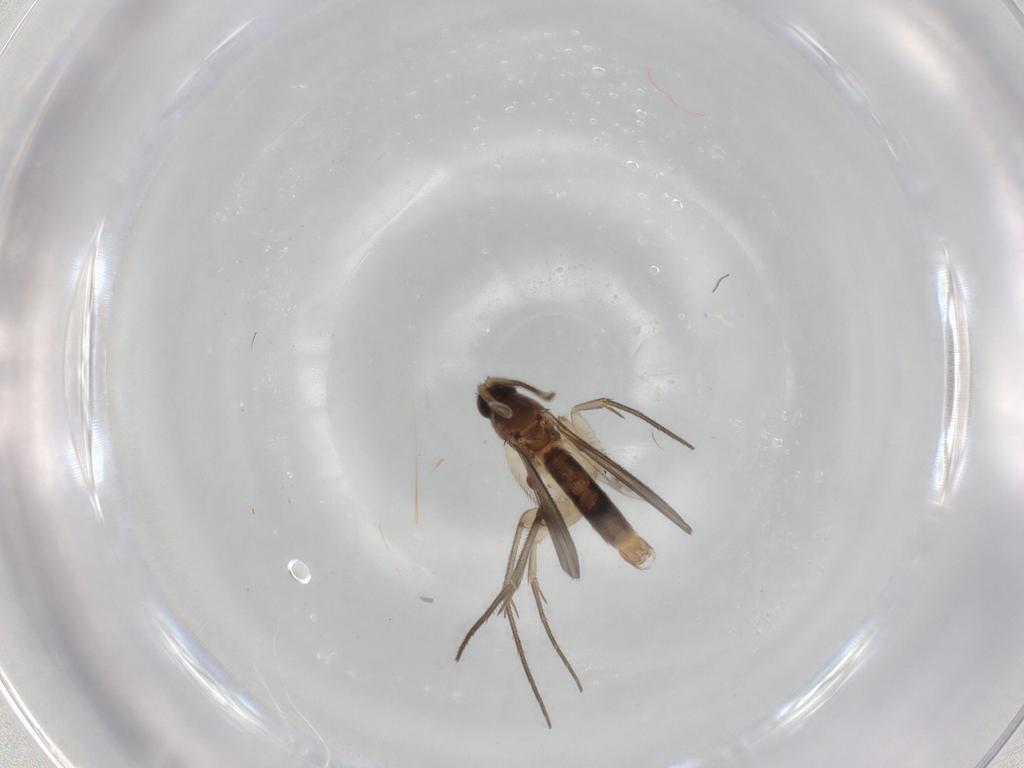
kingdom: Animalia
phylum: Arthropoda
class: Insecta
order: Diptera
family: Mycetophilidae
